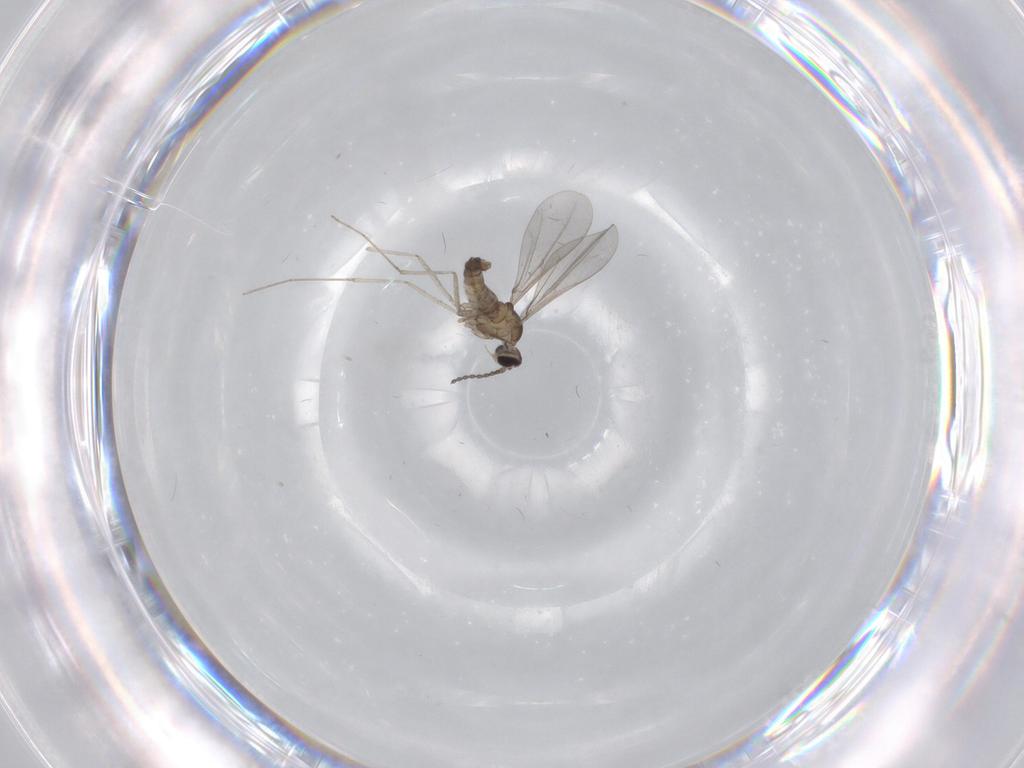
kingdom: Animalia
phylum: Arthropoda
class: Insecta
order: Diptera
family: Cecidomyiidae
